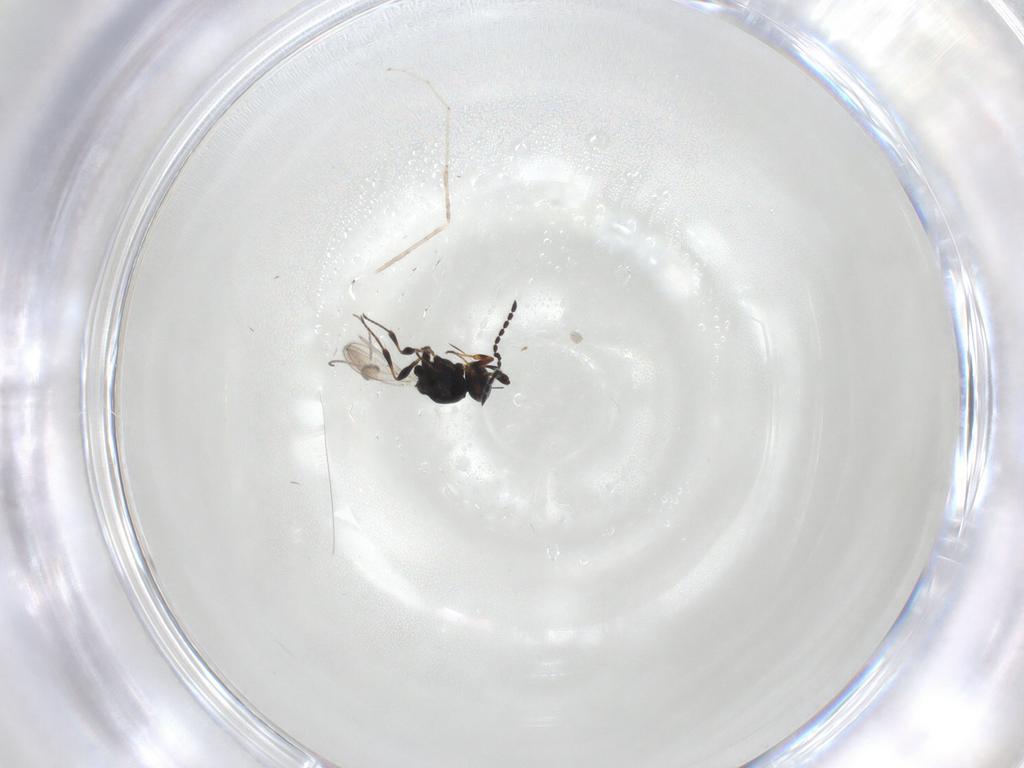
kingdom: Animalia
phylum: Arthropoda
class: Insecta
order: Hymenoptera
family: Platygastridae
